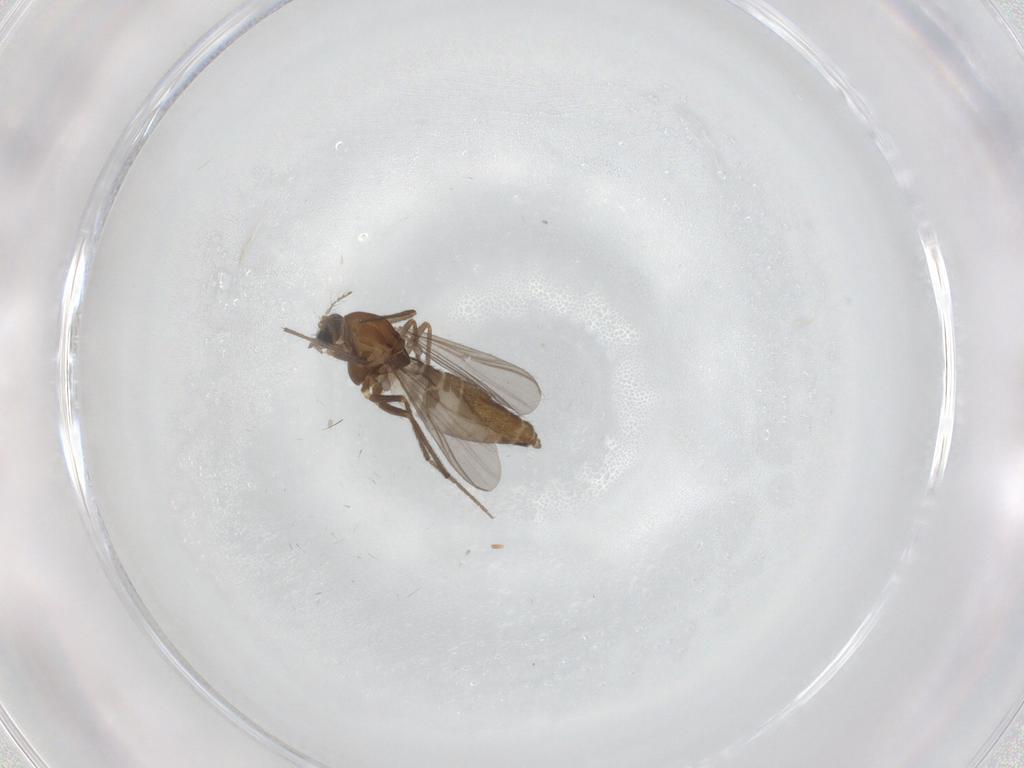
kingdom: Animalia
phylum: Arthropoda
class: Insecta
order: Diptera
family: Chironomidae
